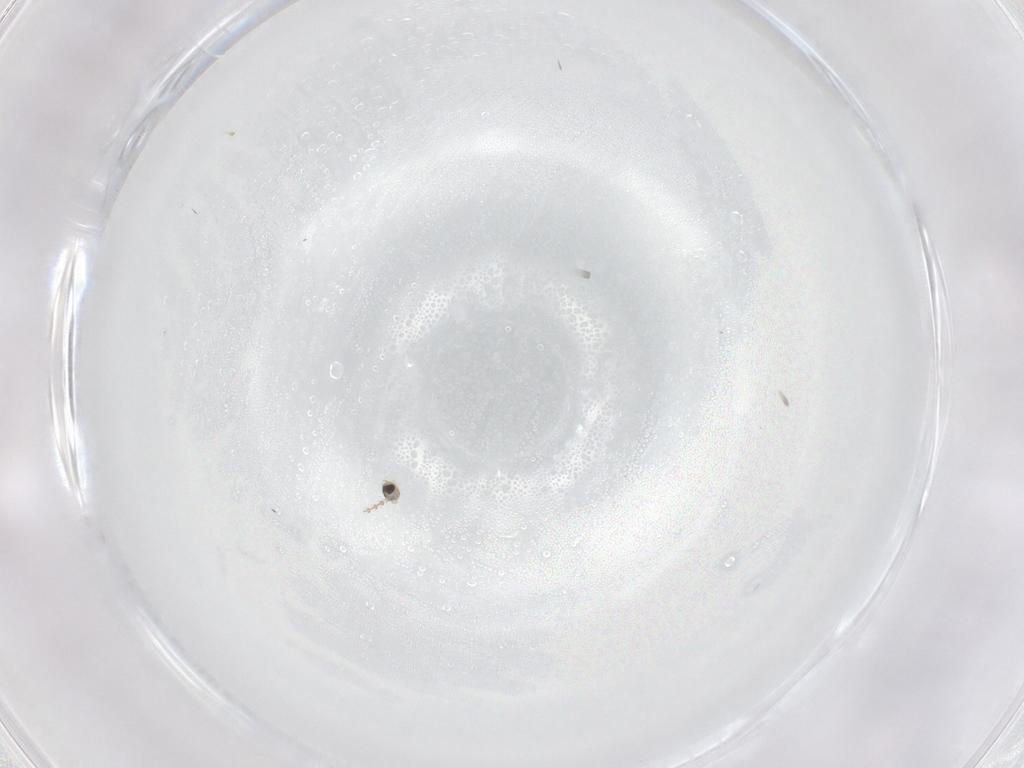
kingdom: Animalia
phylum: Arthropoda
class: Insecta
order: Diptera
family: Cecidomyiidae
